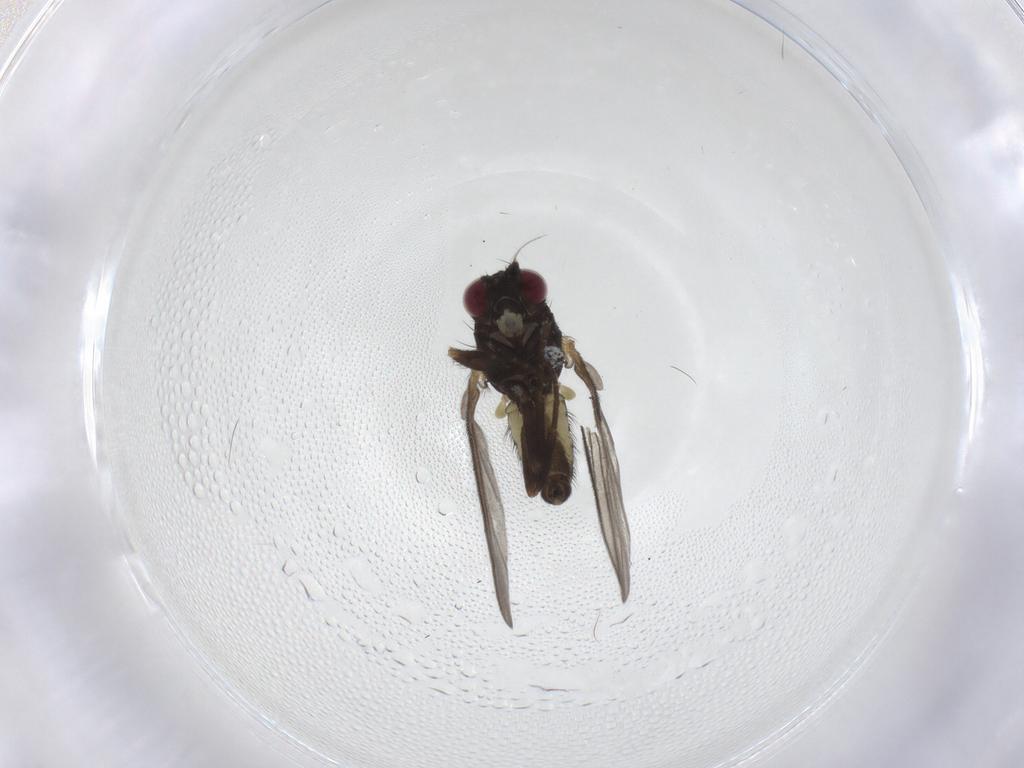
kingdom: Animalia
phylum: Arthropoda
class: Insecta
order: Diptera
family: Agromyzidae
